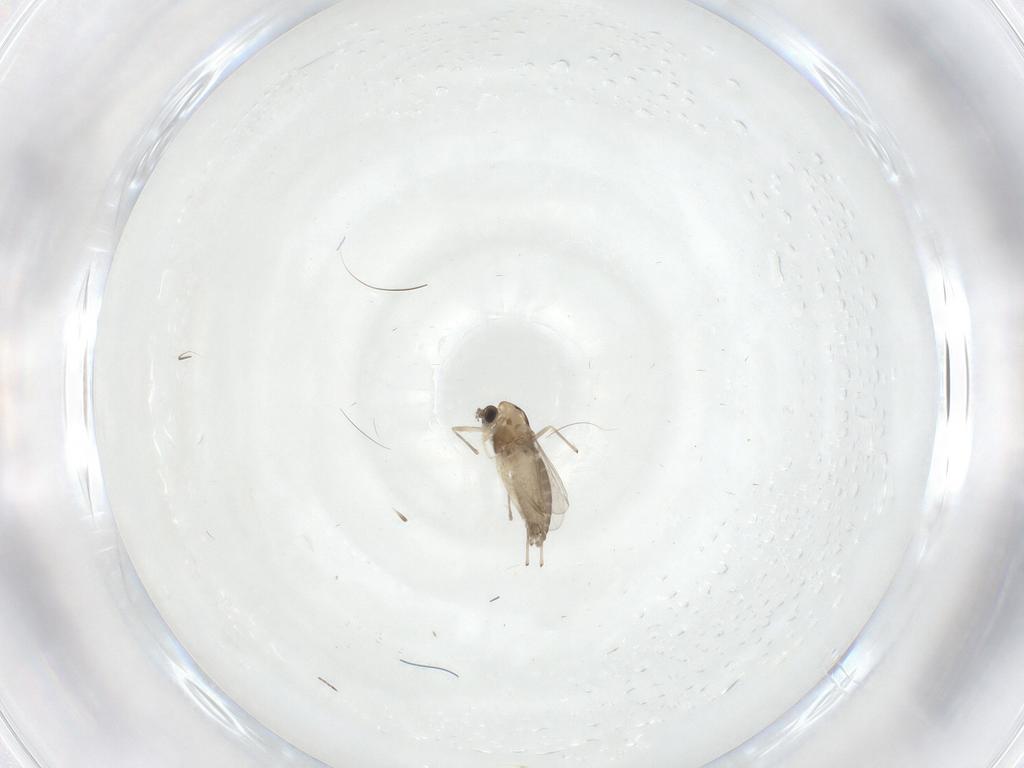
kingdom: Animalia
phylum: Arthropoda
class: Insecta
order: Diptera
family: Chironomidae
